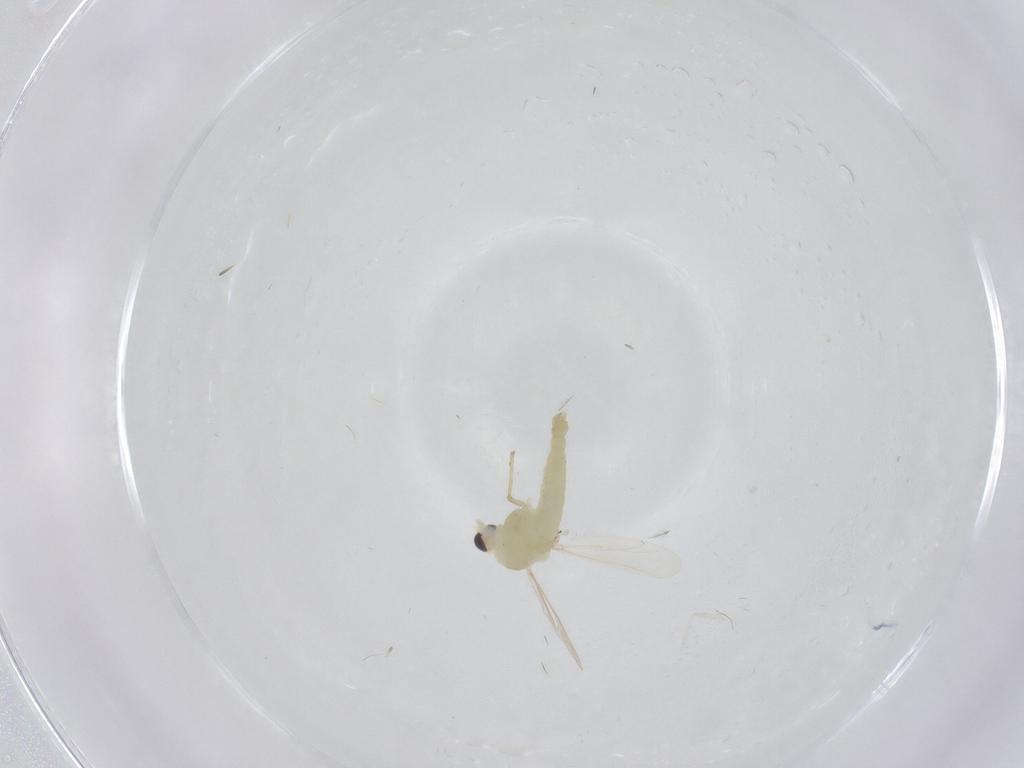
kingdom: Animalia
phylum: Arthropoda
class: Insecta
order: Diptera
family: Chironomidae
